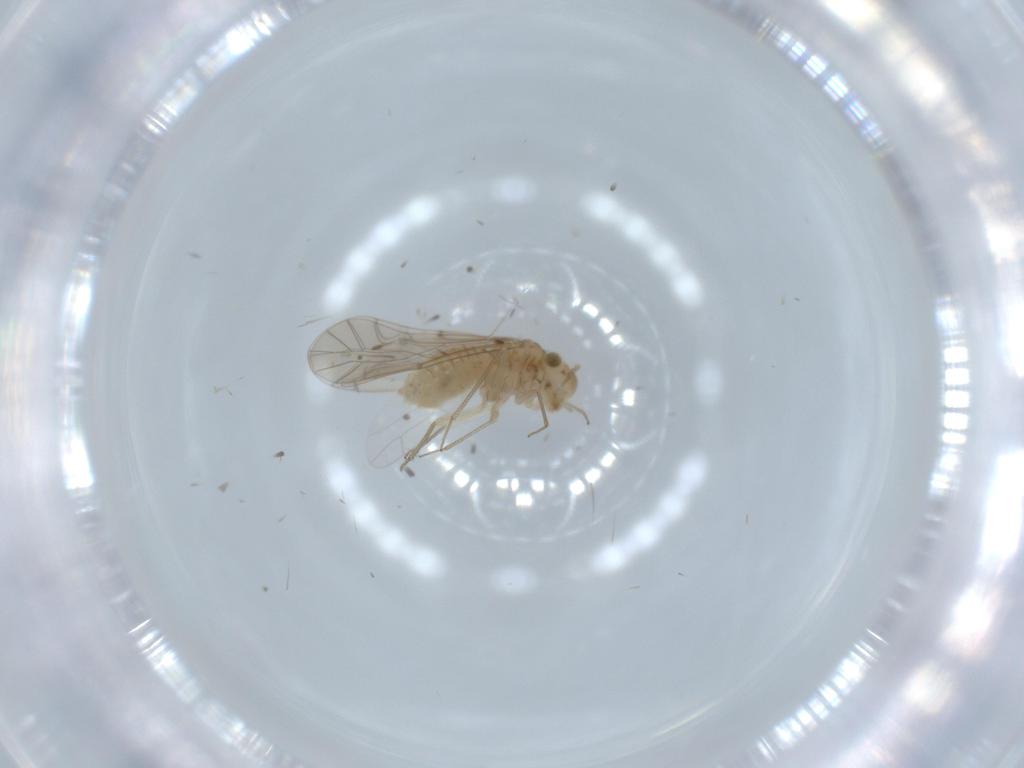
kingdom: Animalia
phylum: Arthropoda
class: Insecta
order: Psocodea
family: Lachesillidae
